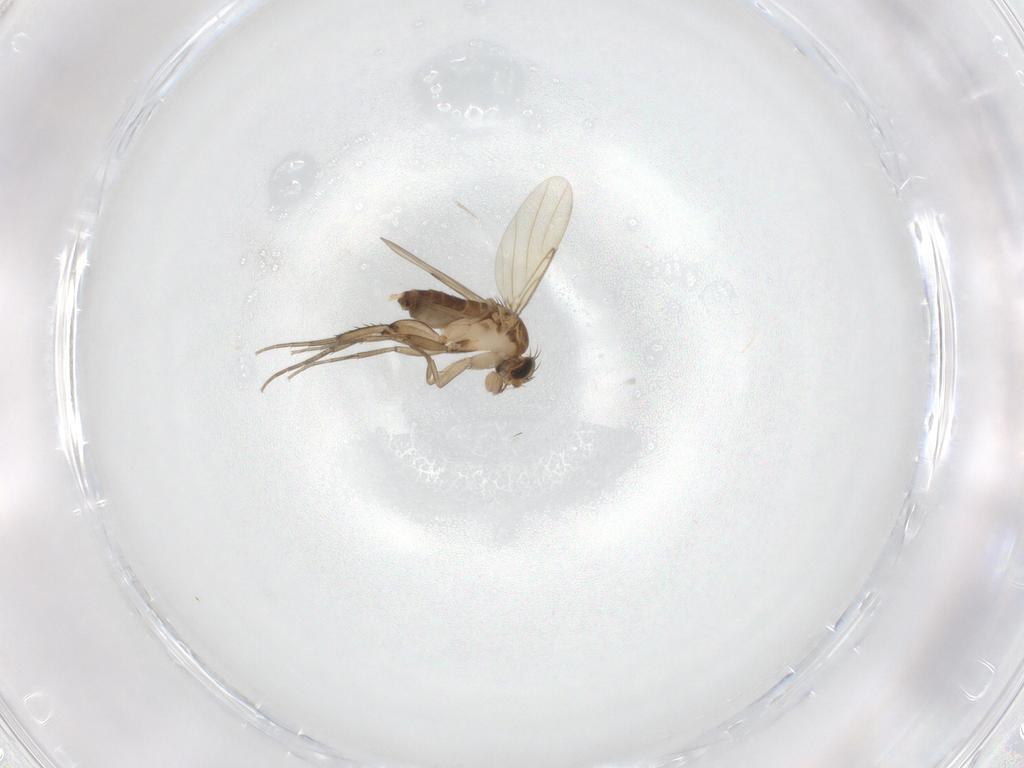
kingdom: Animalia
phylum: Arthropoda
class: Insecta
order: Diptera
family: Phoridae
